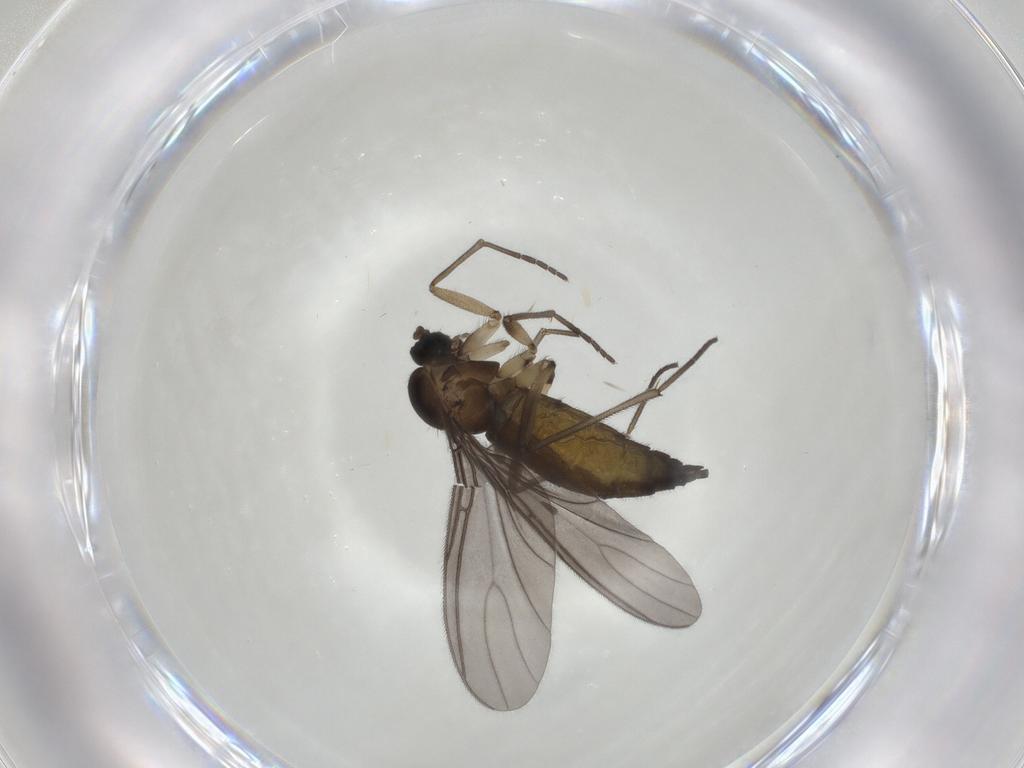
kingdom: Animalia
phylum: Arthropoda
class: Insecta
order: Diptera
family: Sciaridae
